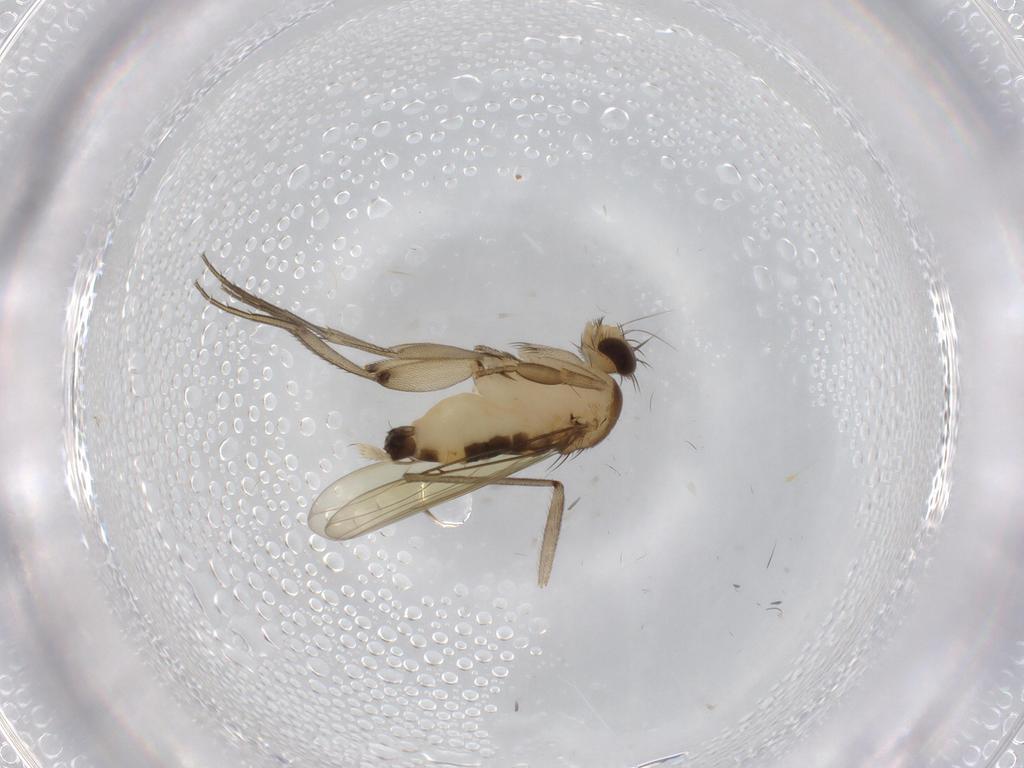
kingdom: Animalia
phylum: Arthropoda
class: Insecta
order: Diptera
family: Phoridae
